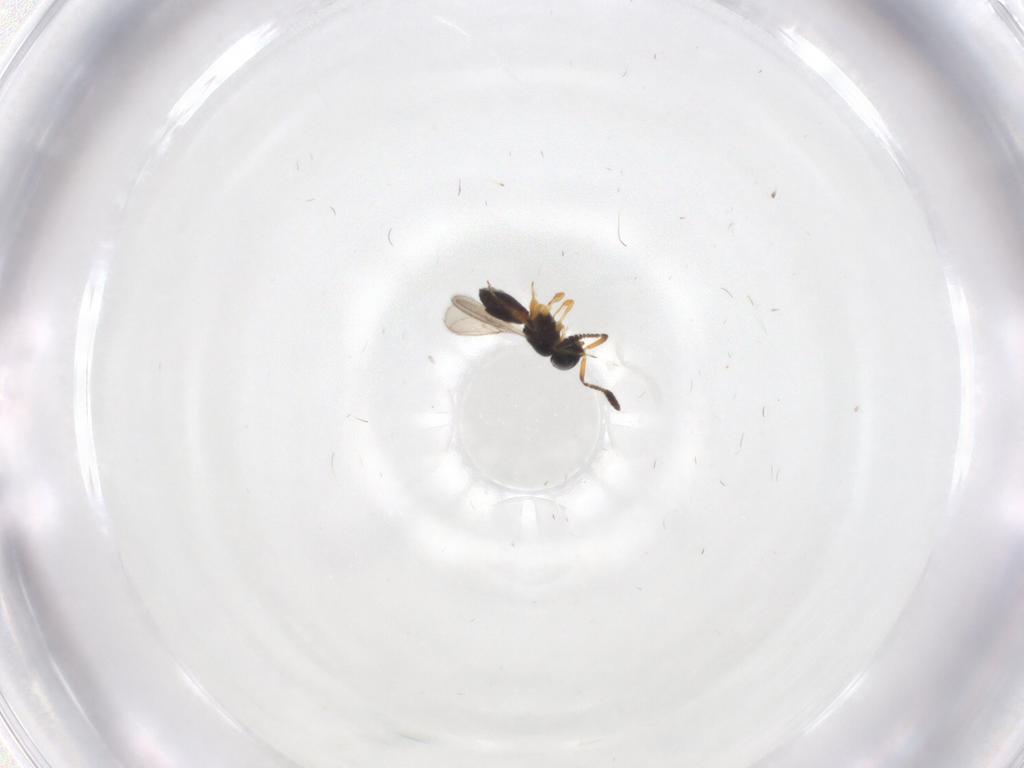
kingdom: Animalia
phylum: Arthropoda
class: Insecta
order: Hymenoptera
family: Scelionidae
